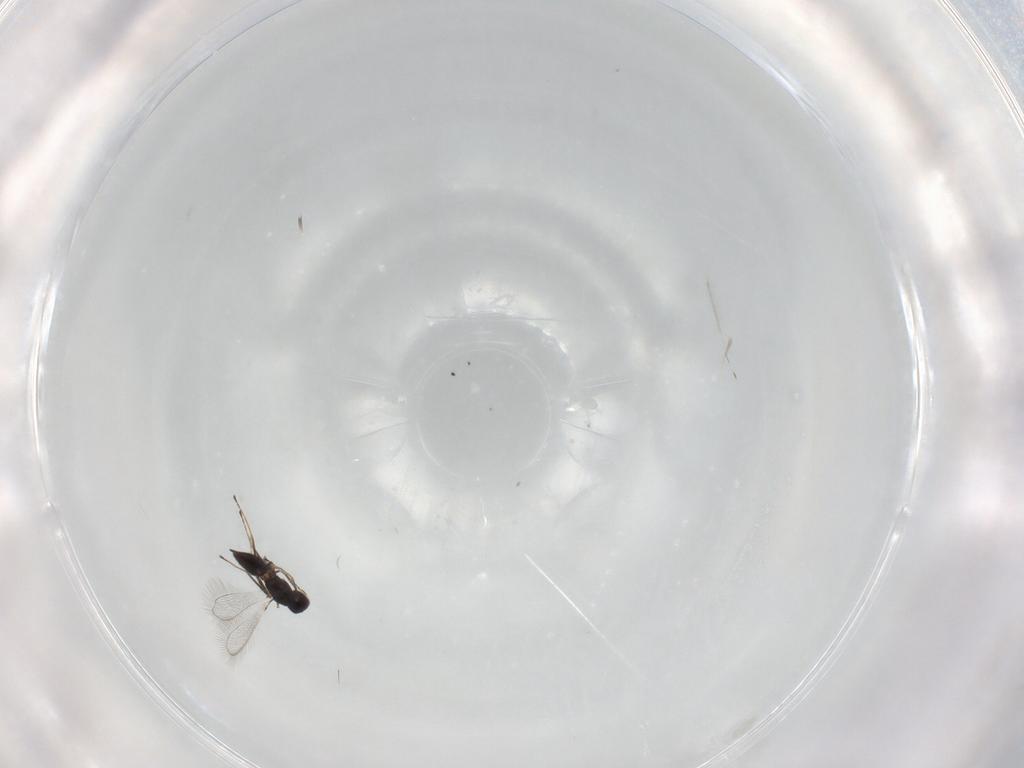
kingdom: Animalia
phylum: Arthropoda
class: Insecta
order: Hymenoptera
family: Mymaridae
